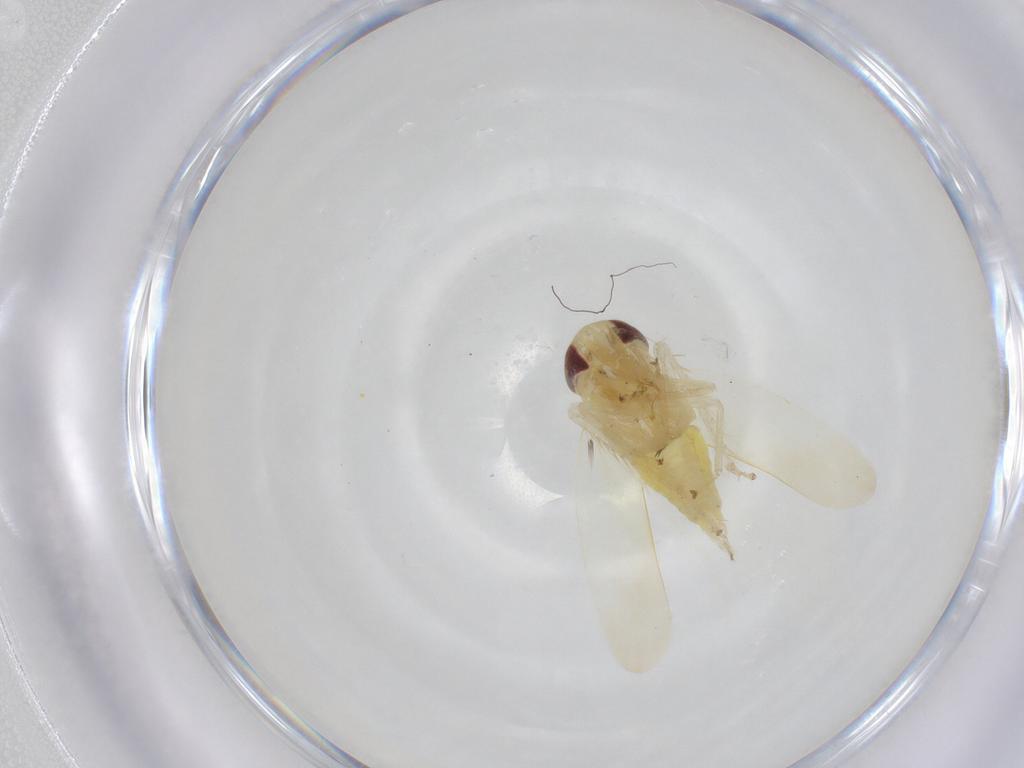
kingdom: Animalia
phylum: Arthropoda
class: Insecta
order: Hemiptera
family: Cicadellidae
